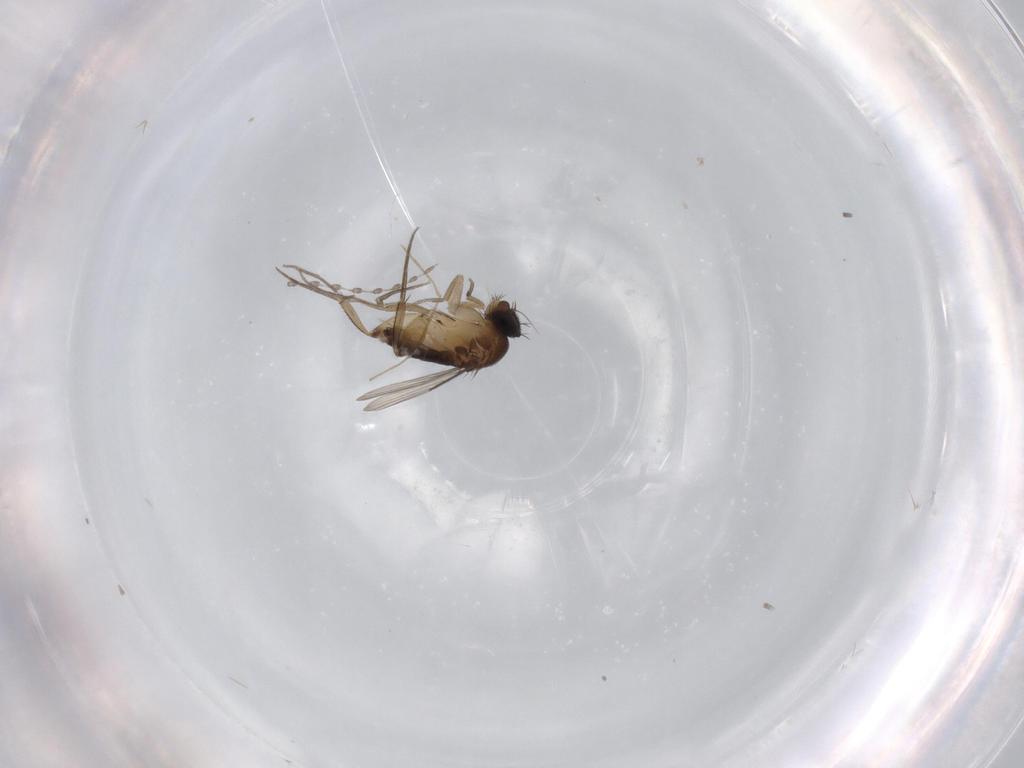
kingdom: Animalia
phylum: Arthropoda
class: Insecta
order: Diptera
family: Phoridae
